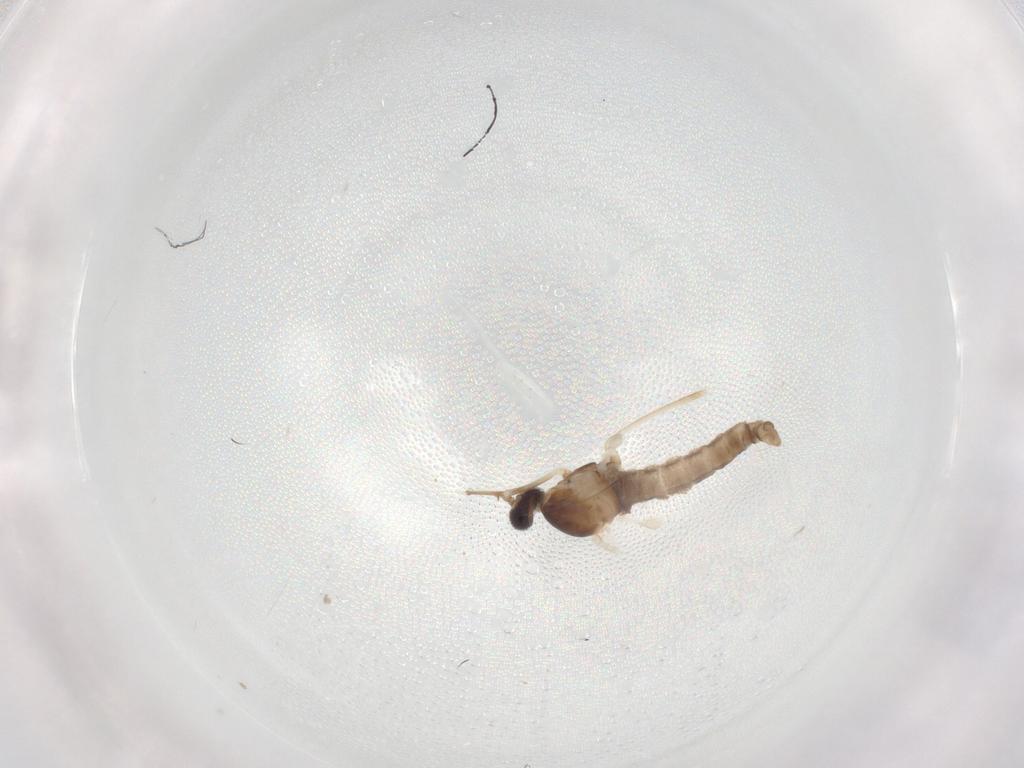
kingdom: Animalia
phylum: Arthropoda
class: Insecta
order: Diptera
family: Cecidomyiidae
